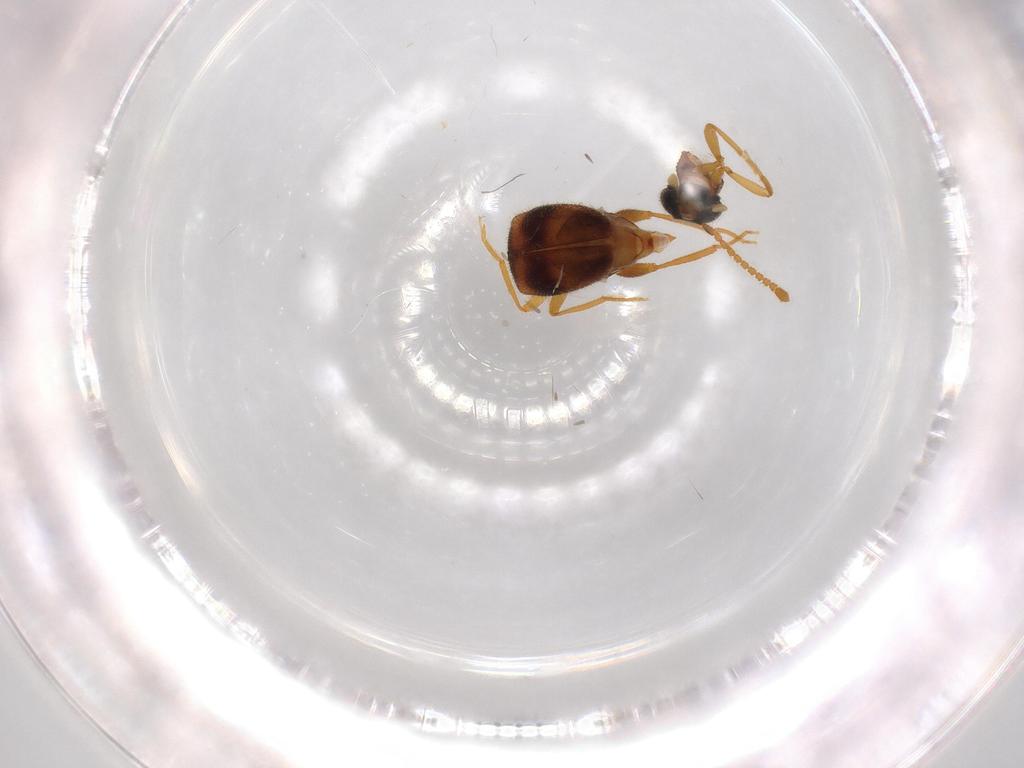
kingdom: Animalia
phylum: Arthropoda
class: Insecta
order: Coleoptera
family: Aderidae
